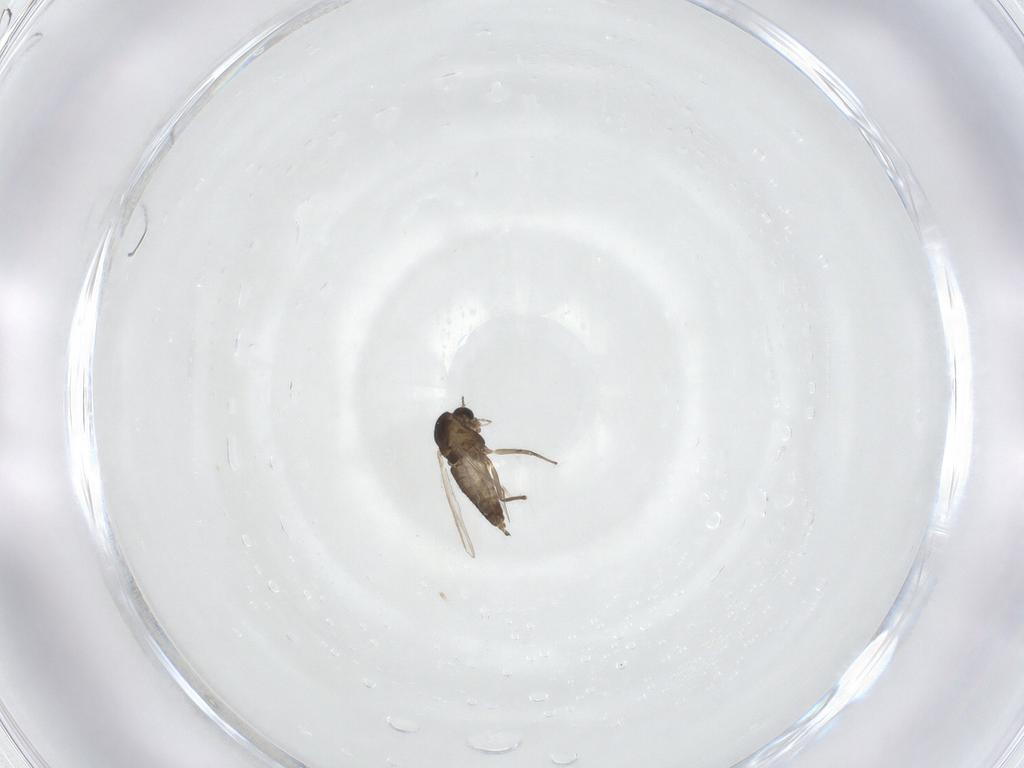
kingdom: Animalia
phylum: Arthropoda
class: Insecta
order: Diptera
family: Chironomidae
